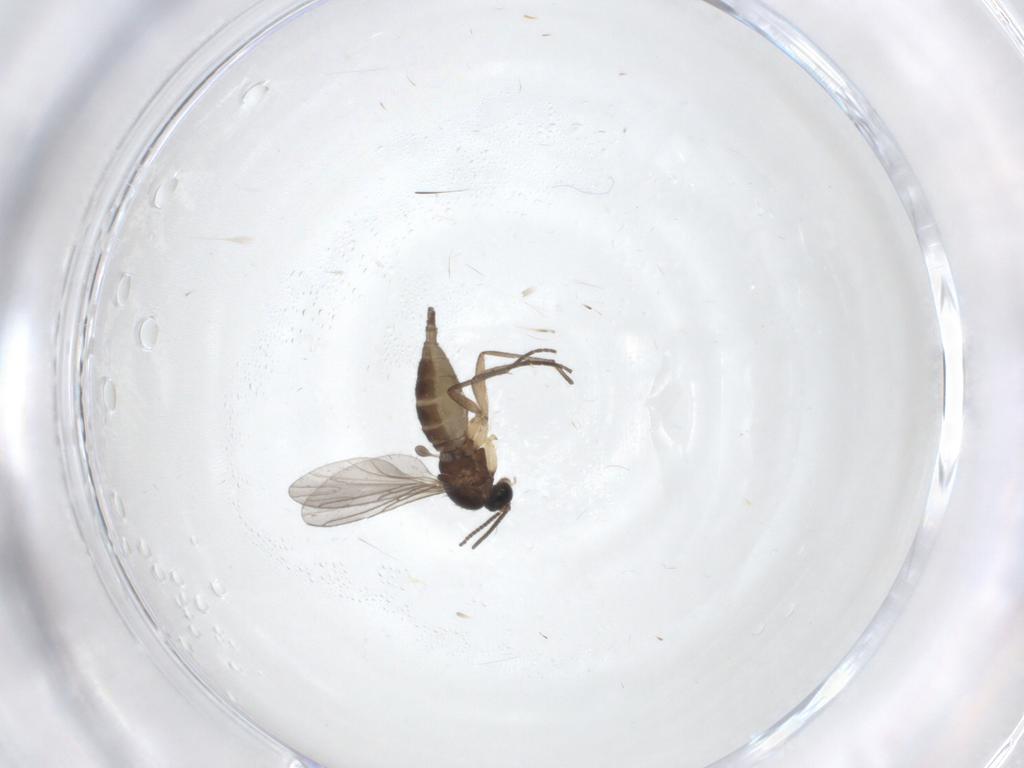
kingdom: Animalia
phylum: Arthropoda
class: Insecta
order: Diptera
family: Sciaridae
